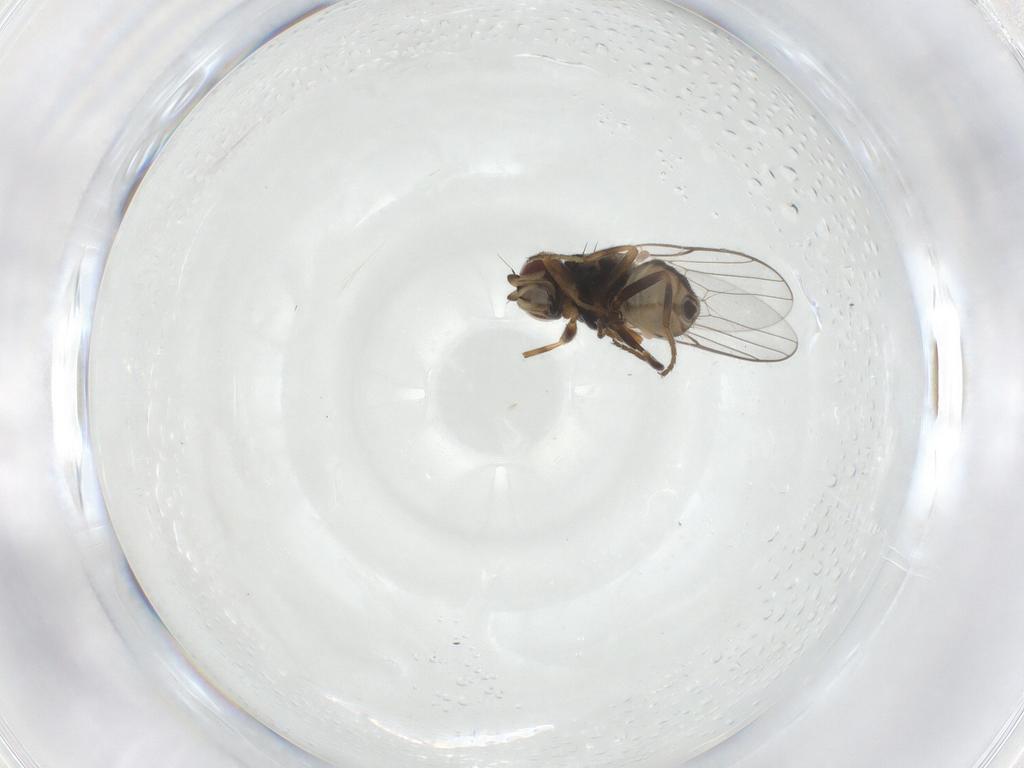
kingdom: Animalia
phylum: Arthropoda
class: Insecta
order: Diptera
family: Chloropidae
